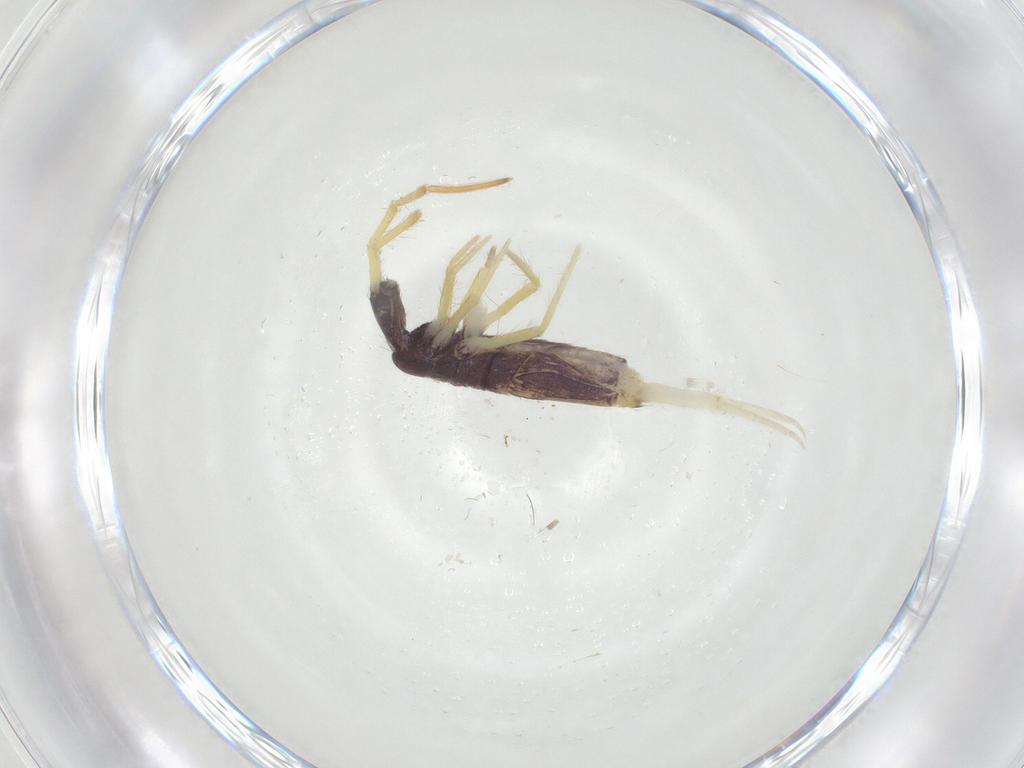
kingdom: Animalia
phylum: Arthropoda
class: Collembola
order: Entomobryomorpha
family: Entomobryidae
